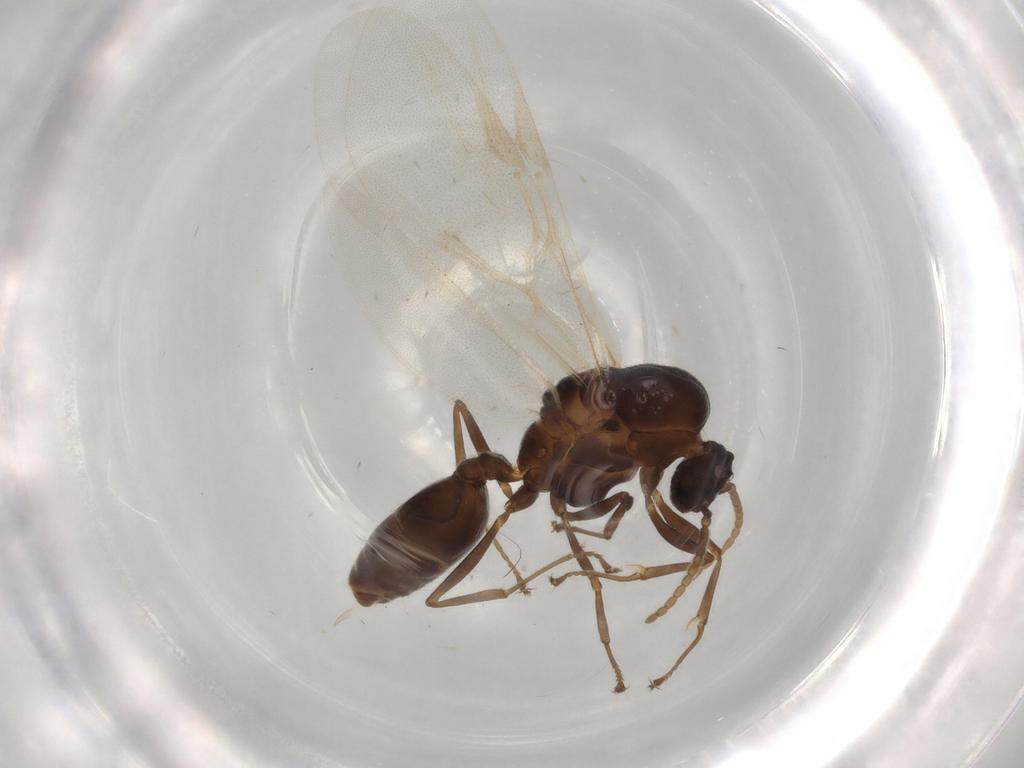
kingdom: Animalia
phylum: Arthropoda
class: Insecta
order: Hymenoptera
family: Formicidae
